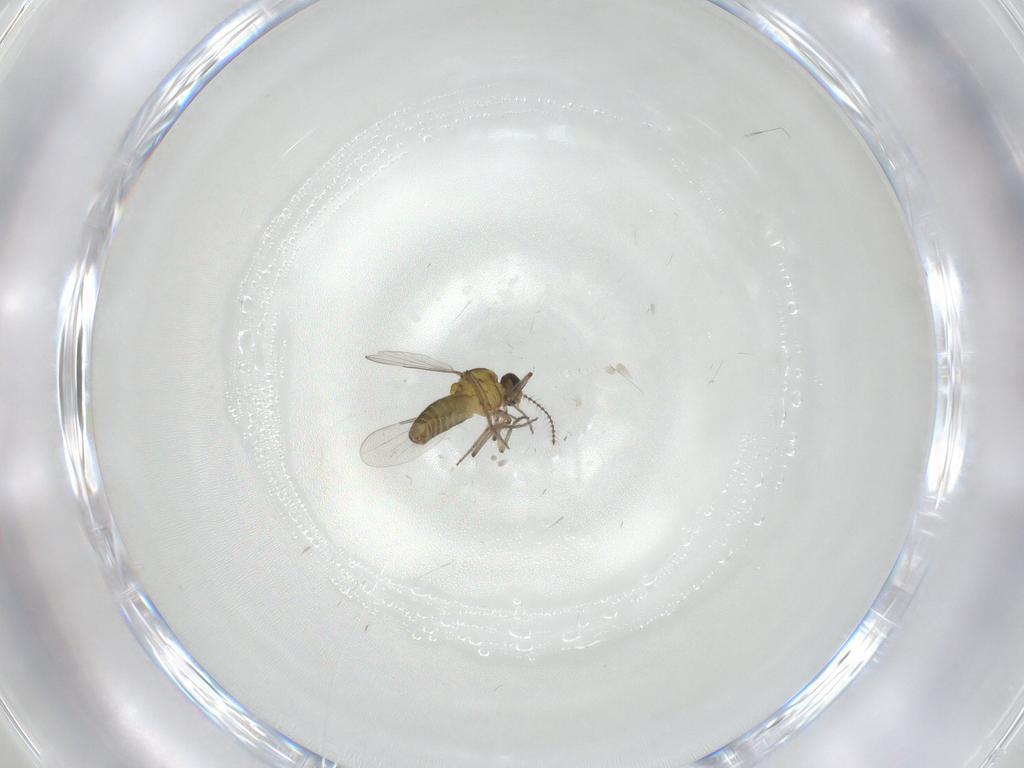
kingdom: Animalia
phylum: Arthropoda
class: Insecta
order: Diptera
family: Ceratopogonidae
